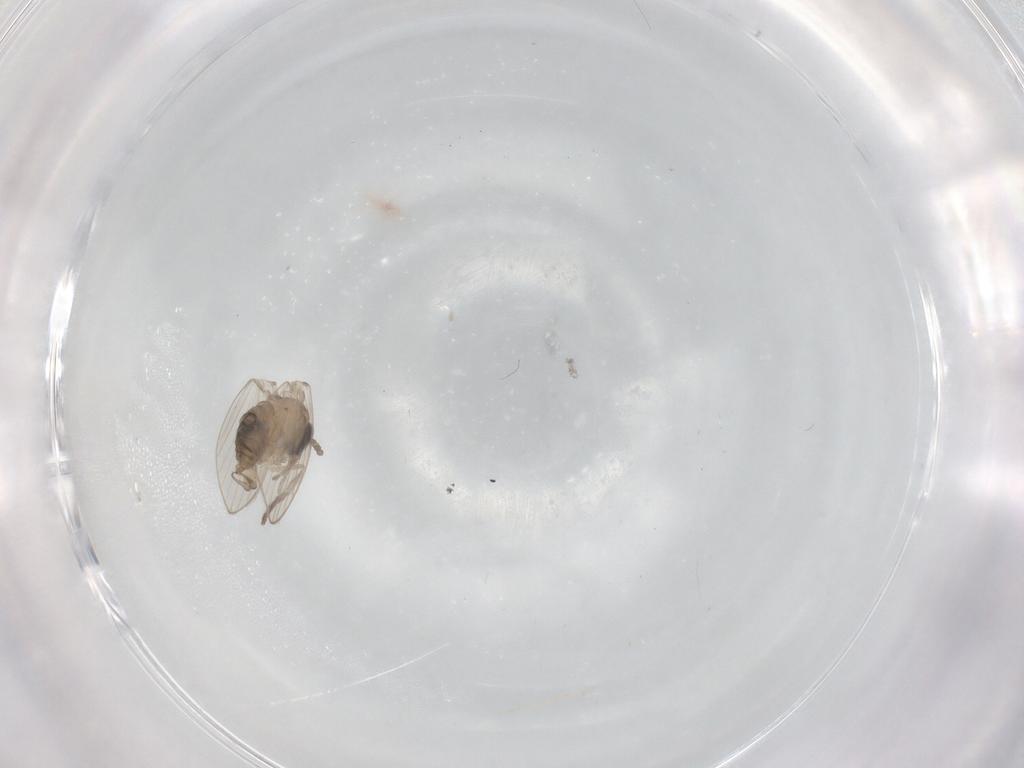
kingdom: Animalia
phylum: Arthropoda
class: Insecta
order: Diptera
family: Psychodidae
